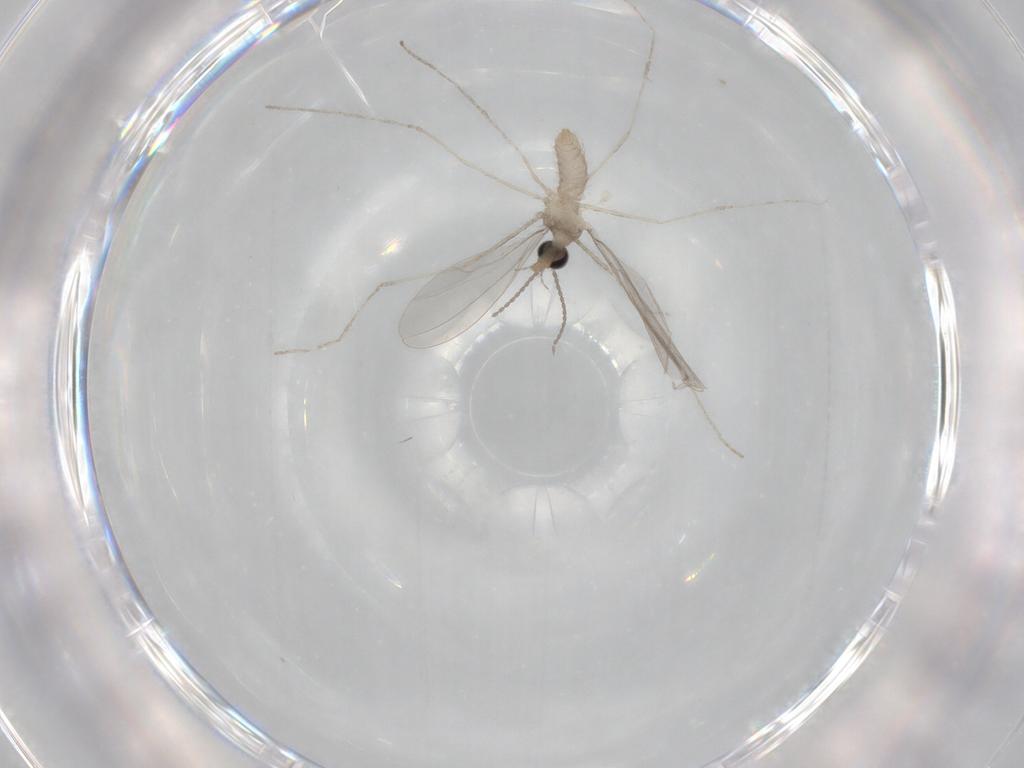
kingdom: Animalia
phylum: Arthropoda
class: Insecta
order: Diptera
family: Cecidomyiidae
